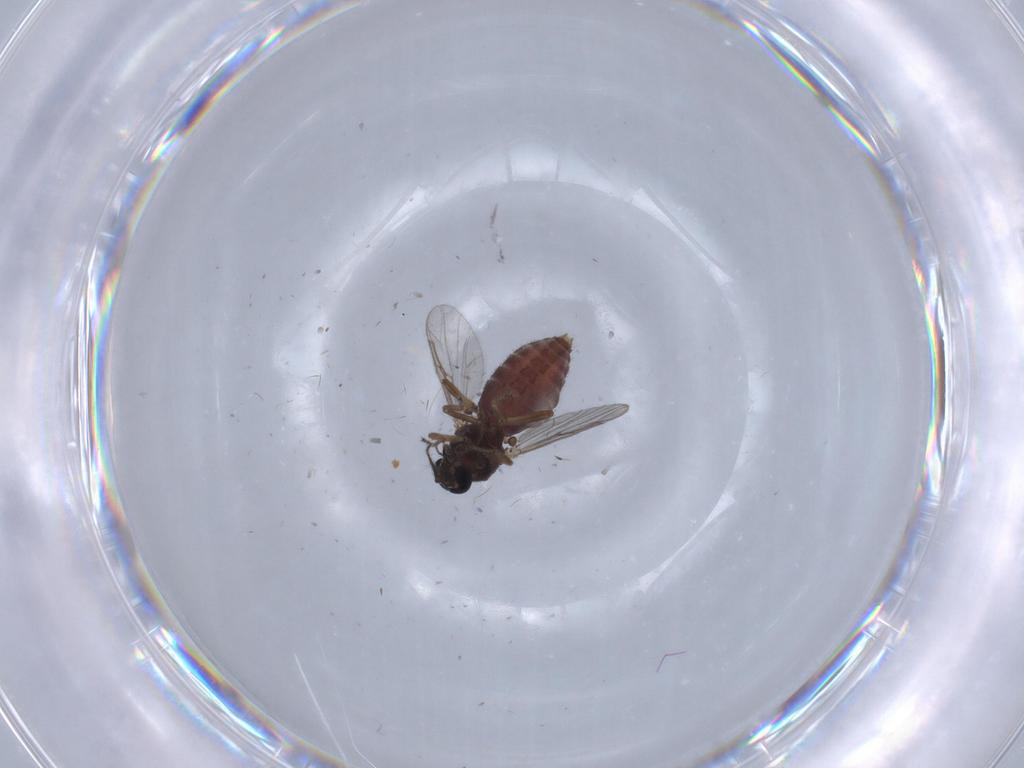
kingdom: Animalia
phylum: Arthropoda
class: Insecta
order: Diptera
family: Ceratopogonidae
